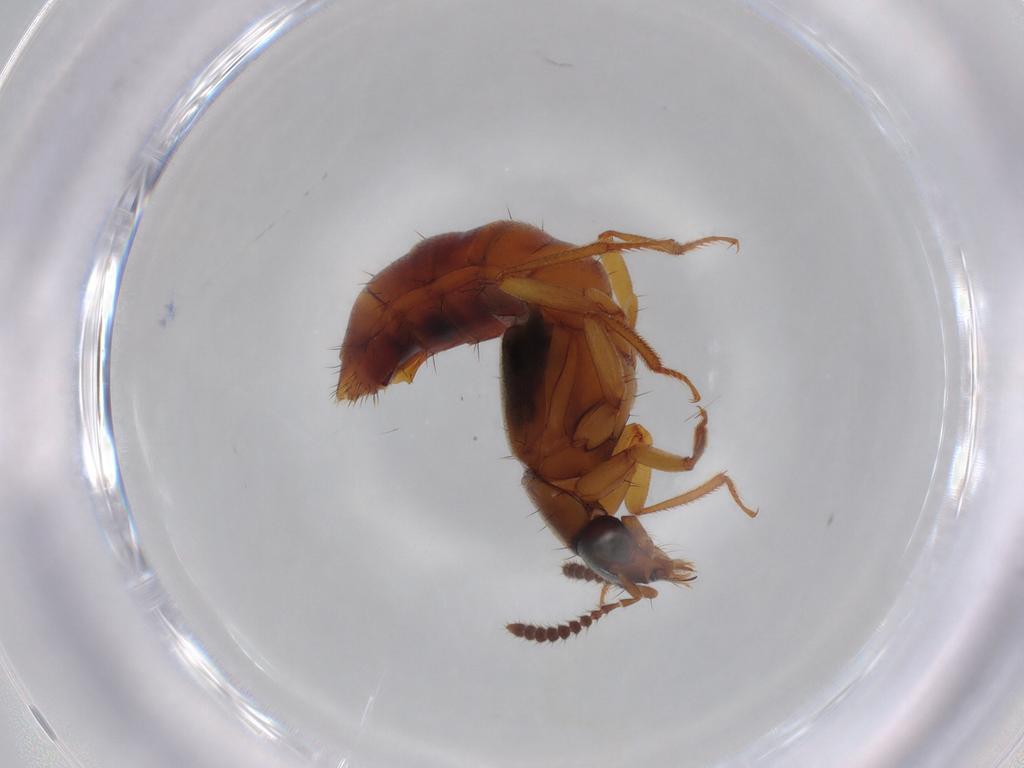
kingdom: Animalia
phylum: Arthropoda
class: Insecta
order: Coleoptera
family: Staphylinidae
